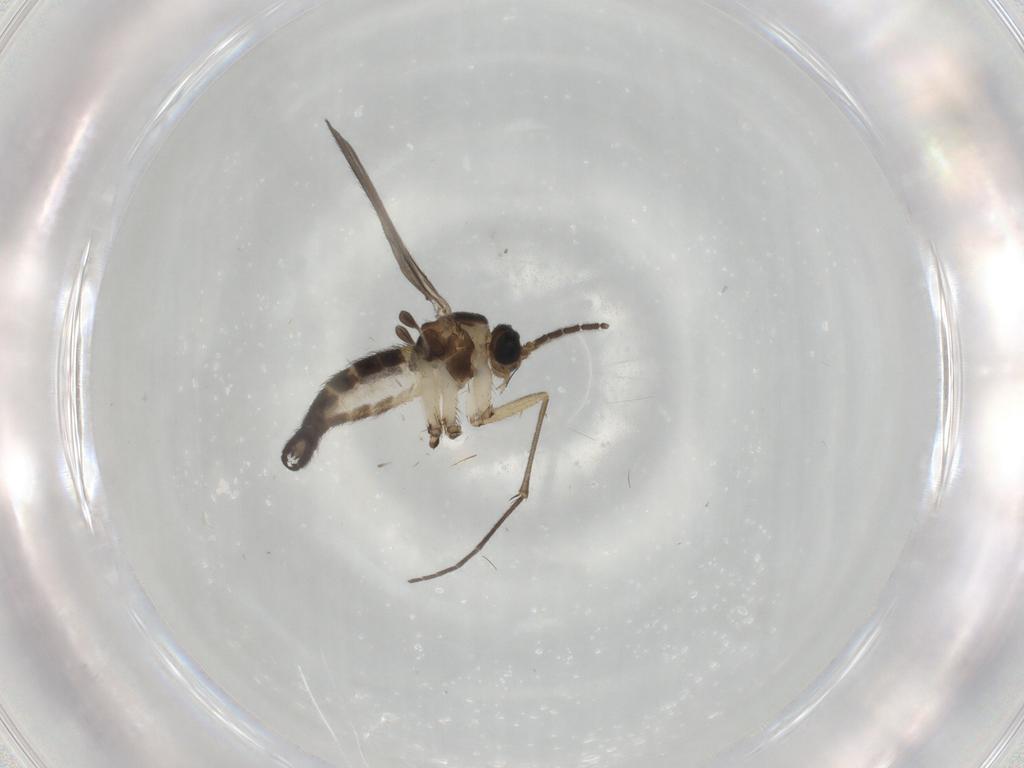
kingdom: Animalia
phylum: Arthropoda
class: Insecta
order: Diptera
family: Sciaridae
